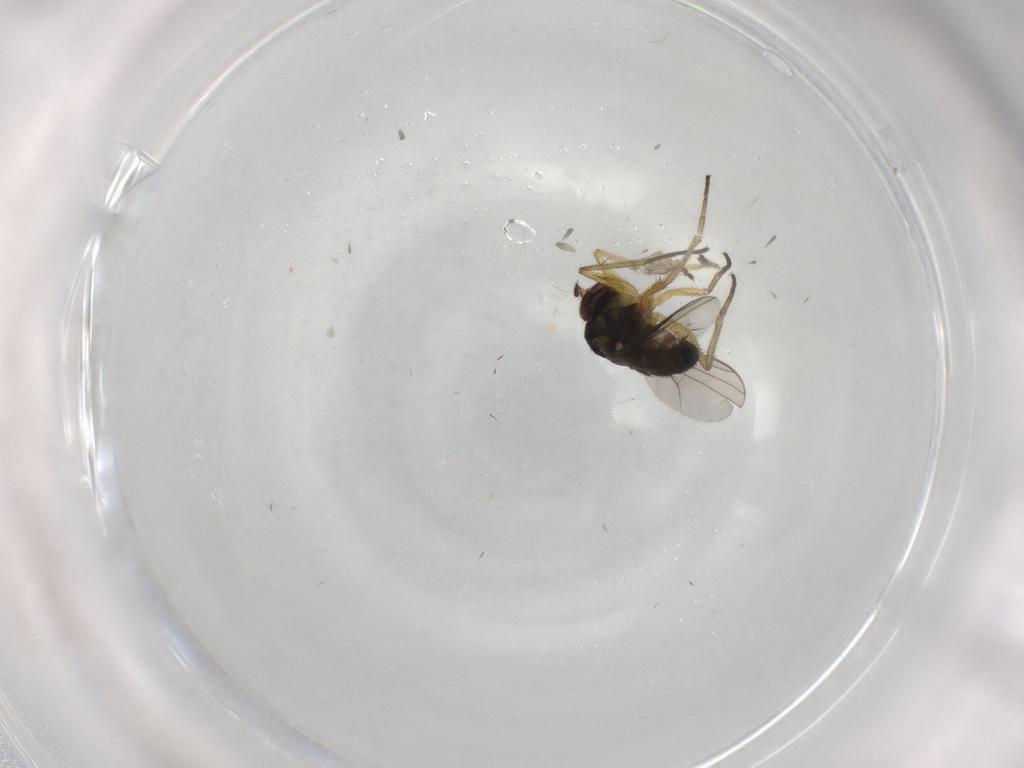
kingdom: Animalia
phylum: Arthropoda
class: Insecta
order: Diptera
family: Dolichopodidae
